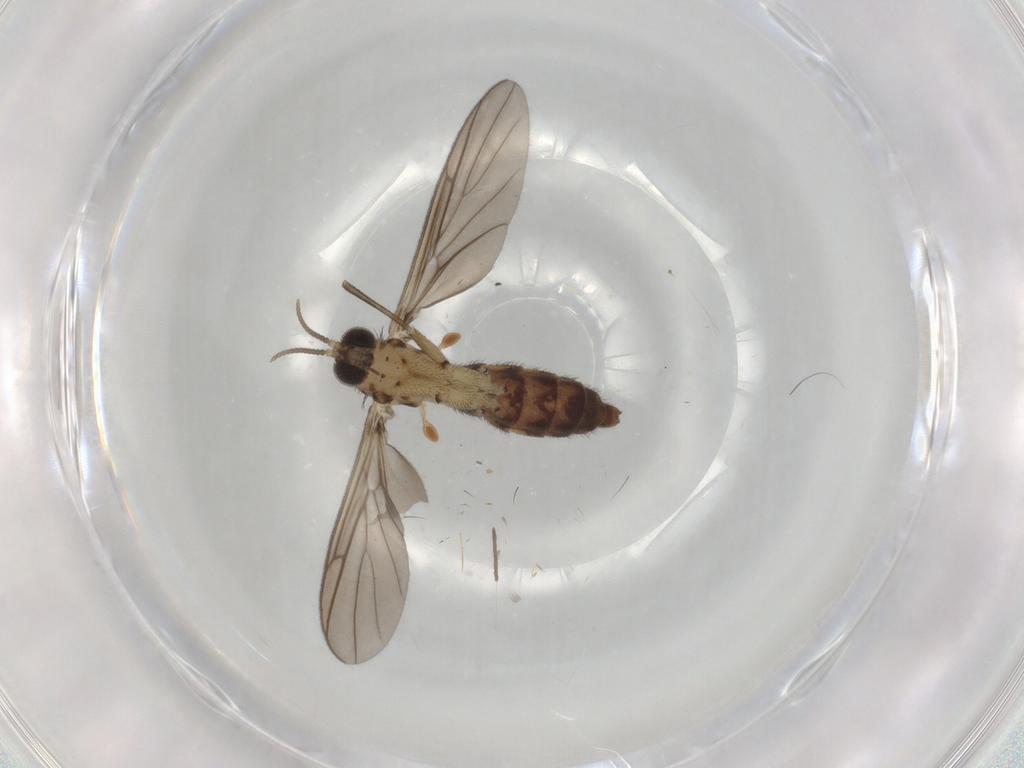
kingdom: Animalia
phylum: Arthropoda
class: Insecta
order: Diptera
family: Keroplatidae
